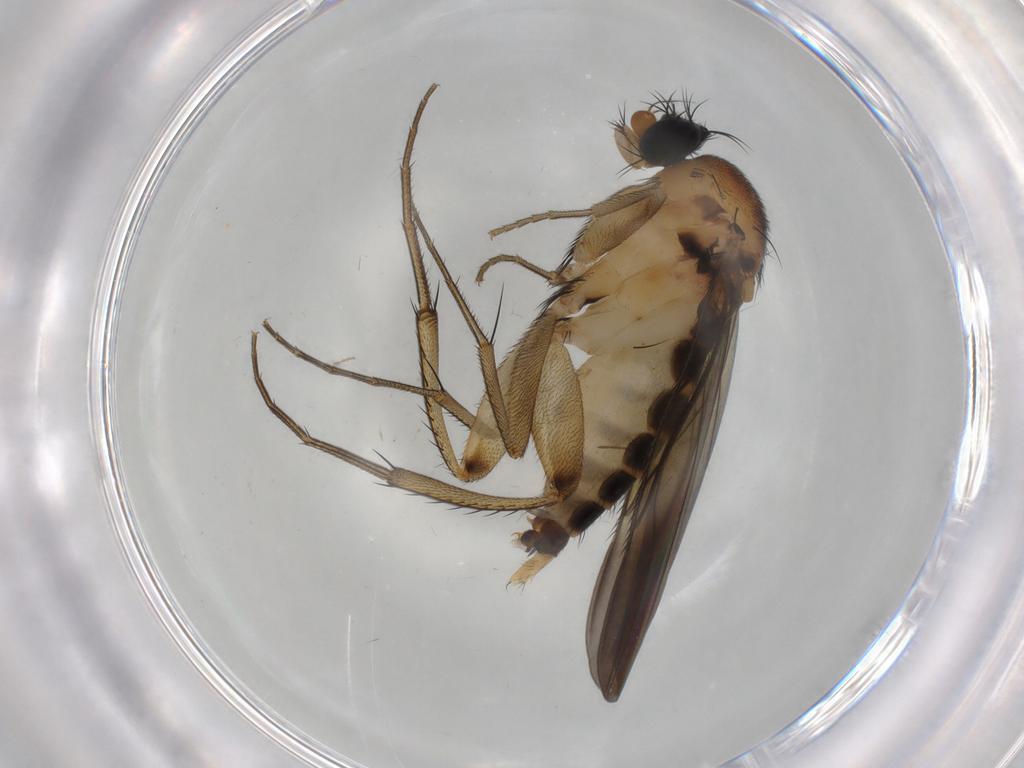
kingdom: Animalia
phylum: Arthropoda
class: Insecta
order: Diptera
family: Phoridae
